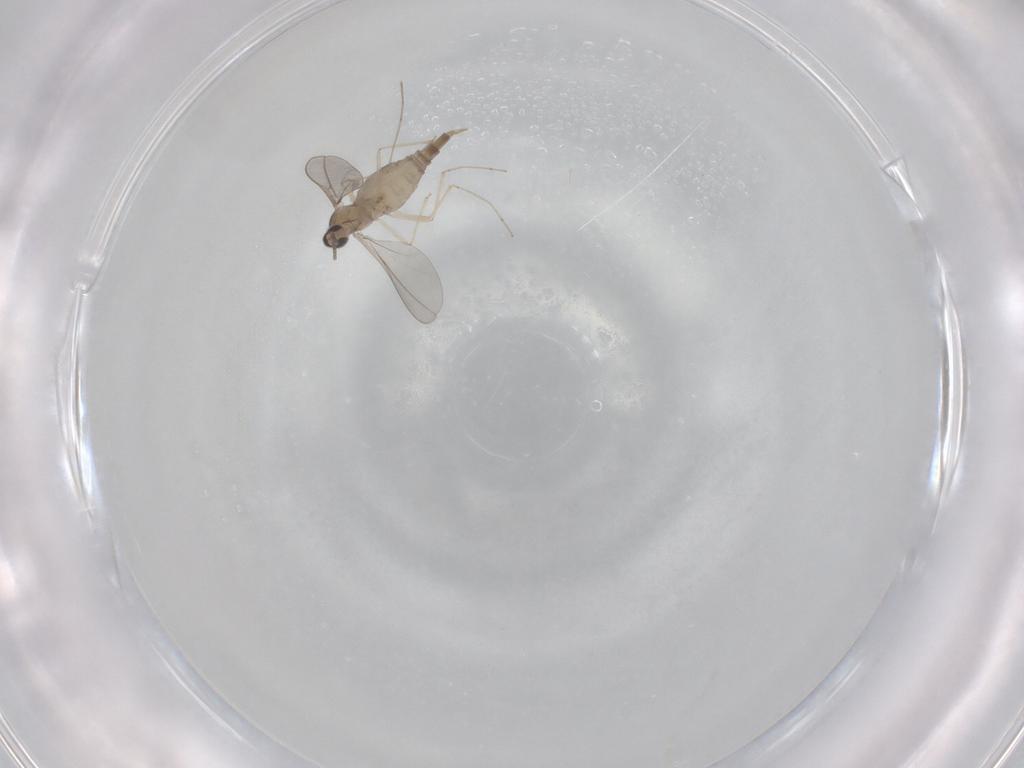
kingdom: Animalia
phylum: Arthropoda
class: Insecta
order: Diptera
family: Cecidomyiidae
